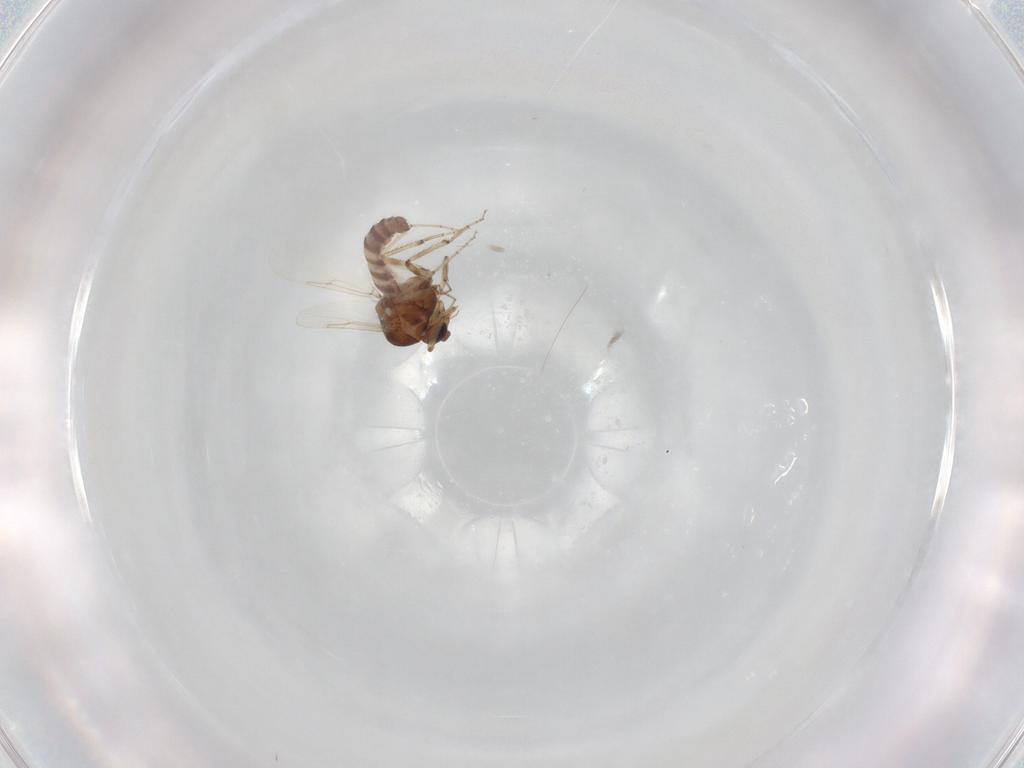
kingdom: Animalia
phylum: Arthropoda
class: Insecta
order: Diptera
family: Ceratopogonidae
